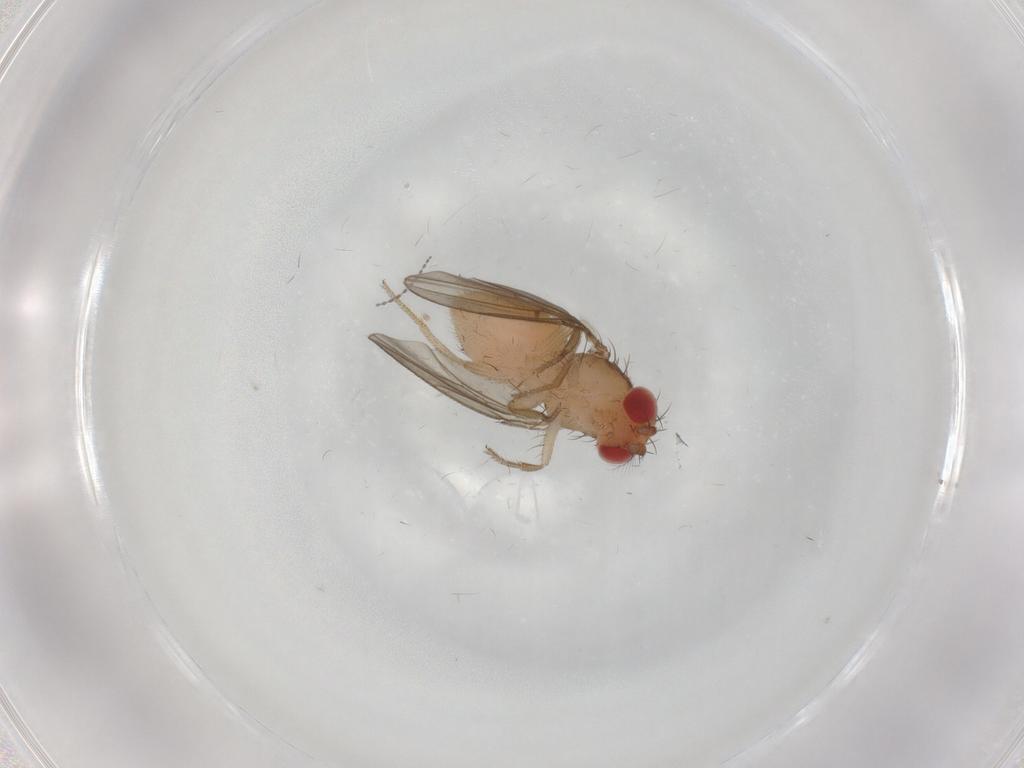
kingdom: Animalia
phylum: Arthropoda
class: Insecta
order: Diptera
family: Drosophilidae
